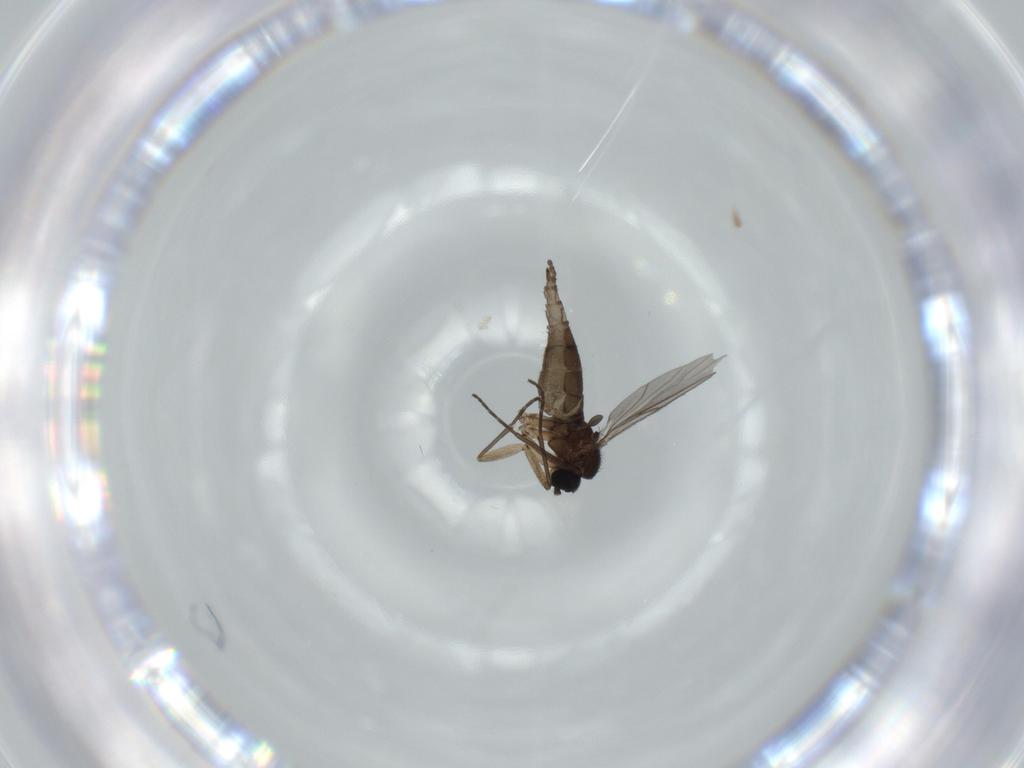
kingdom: Animalia
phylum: Arthropoda
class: Insecta
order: Diptera
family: Sciaridae
